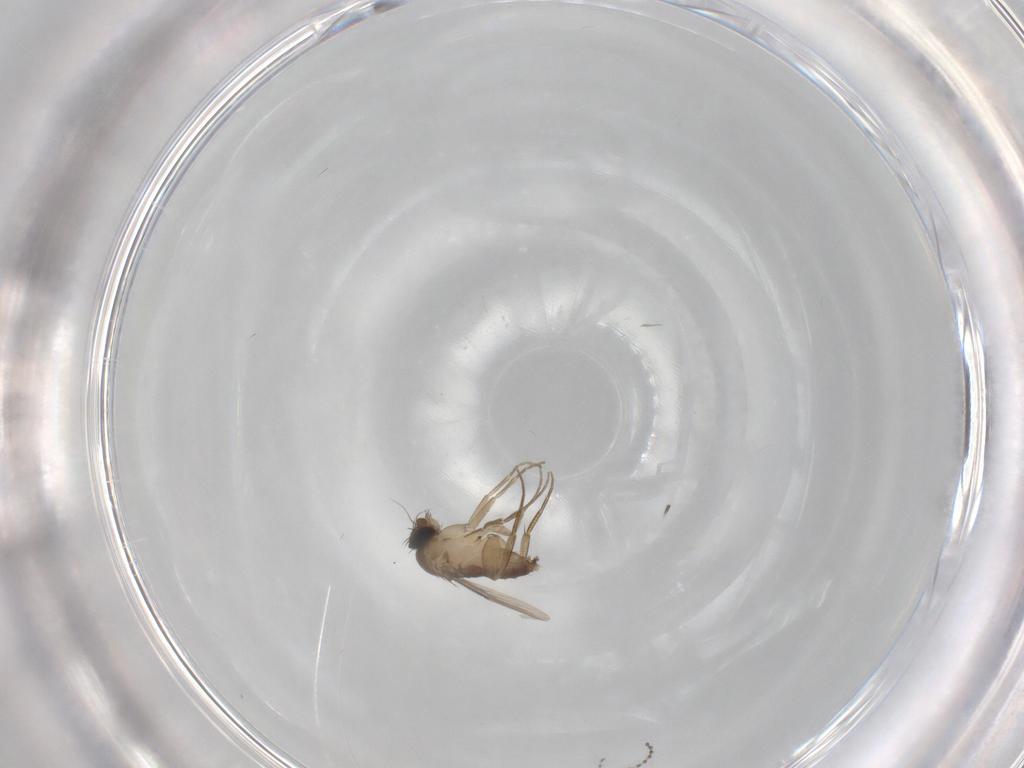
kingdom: Animalia
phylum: Arthropoda
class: Insecta
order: Diptera
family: Phoridae
